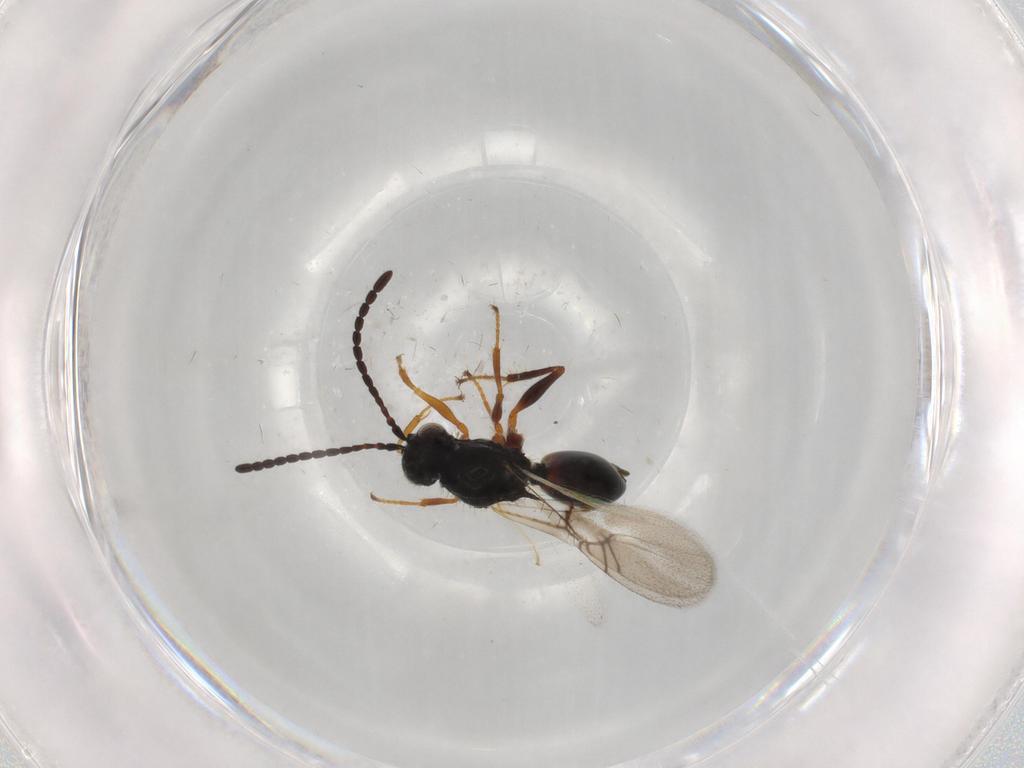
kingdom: Animalia
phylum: Arthropoda
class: Insecta
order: Hymenoptera
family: Figitidae
